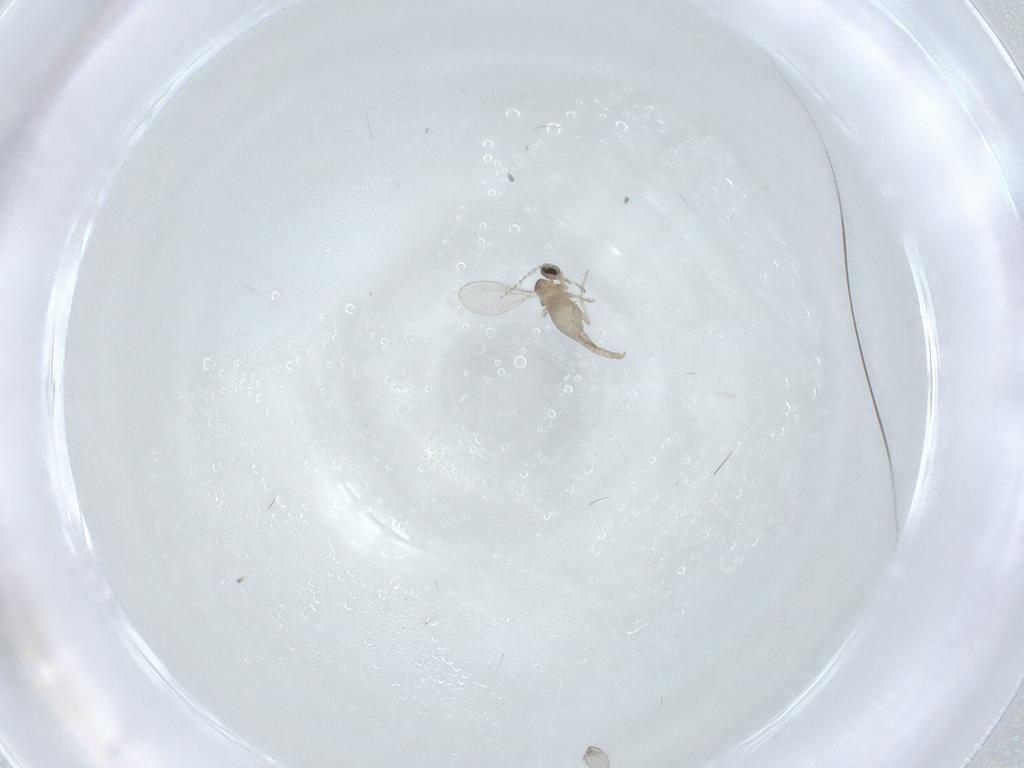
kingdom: Animalia
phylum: Arthropoda
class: Insecta
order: Diptera
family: Cecidomyiidae
